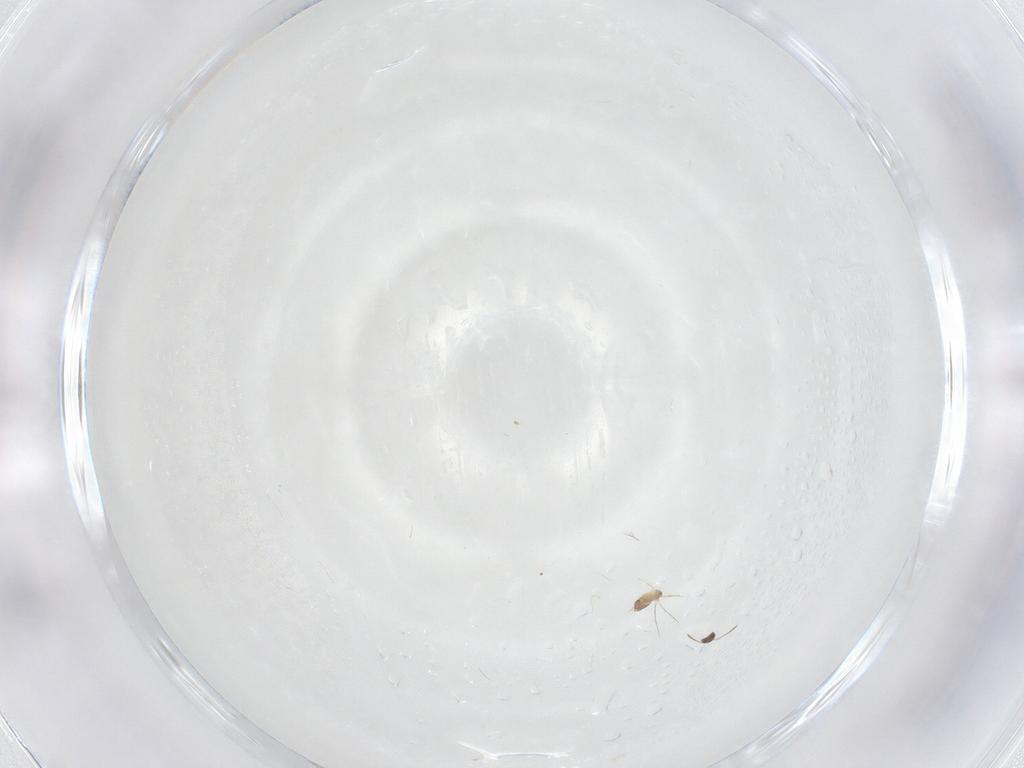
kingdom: Animalia
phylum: Arthropoda
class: Insecta
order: Diptera
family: Ceratopogonidae
